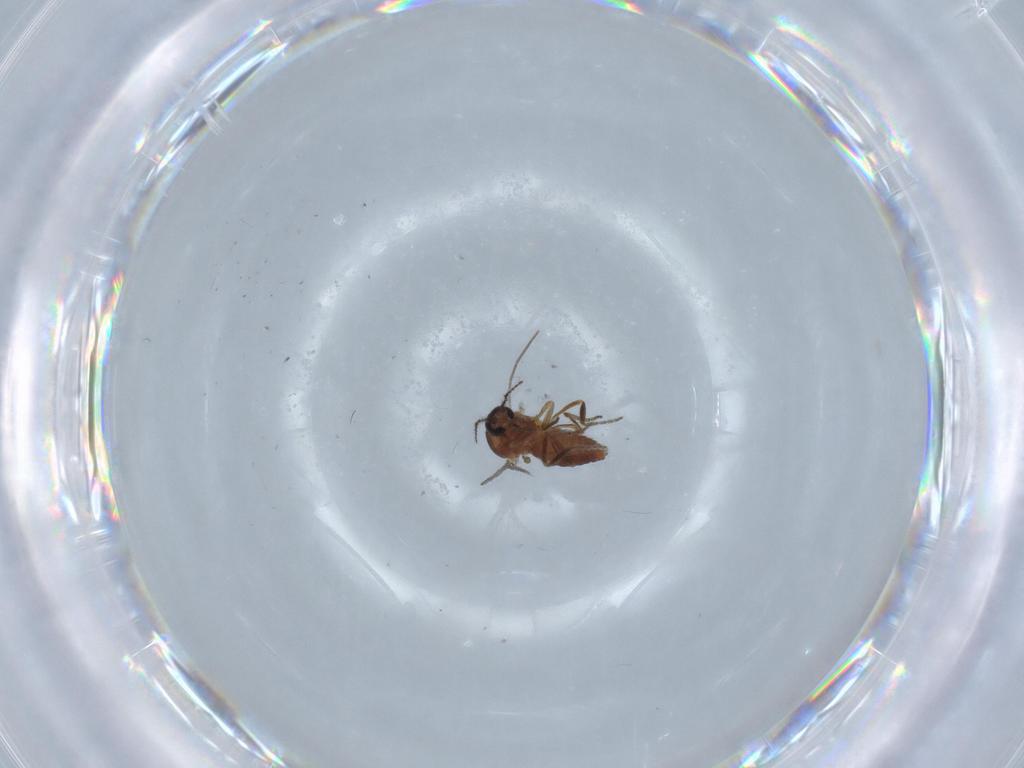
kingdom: Animalia
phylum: Arthropoda
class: Insecta
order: Diptera
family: Ceratopogonidae
